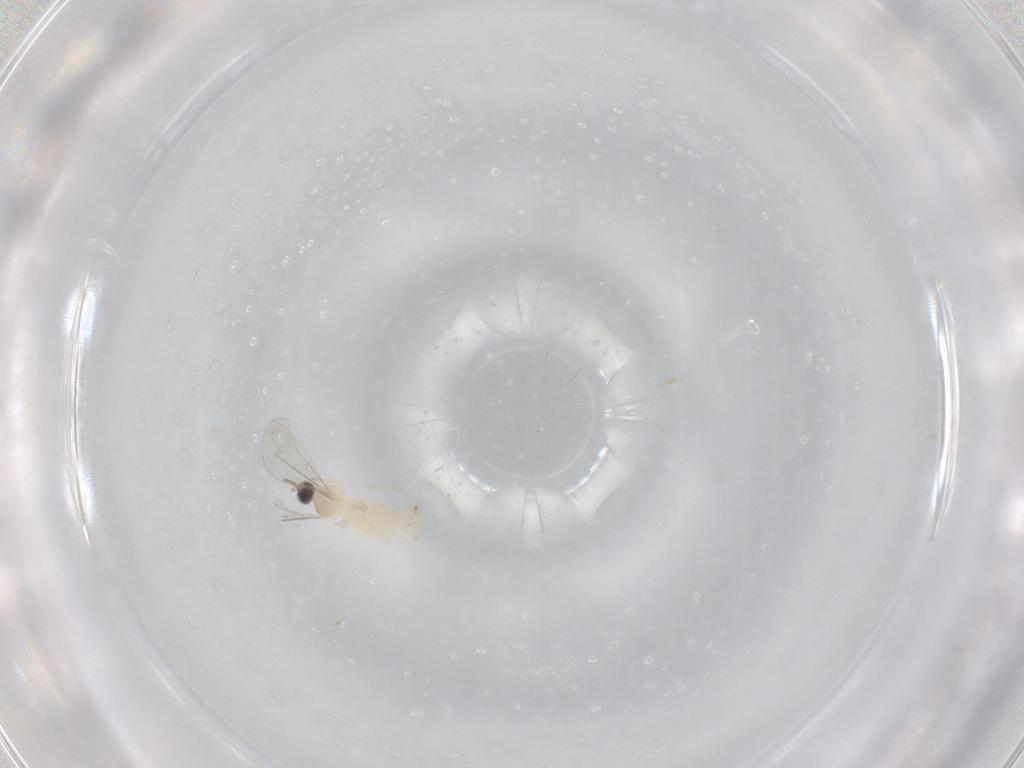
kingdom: Animalia
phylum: Arthropoda
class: Insecta
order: Diptera
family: Cecidomyiidae
